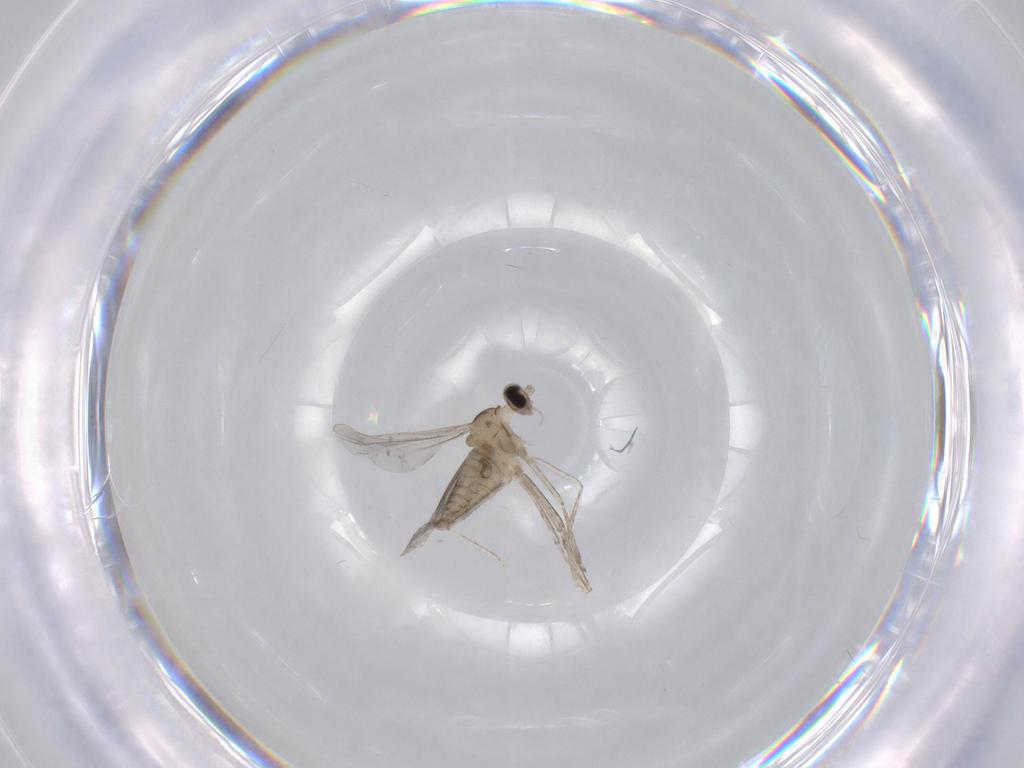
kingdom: Animalia
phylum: Arthropoda
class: Insecta
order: Diptera
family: Cecidomyiidae
